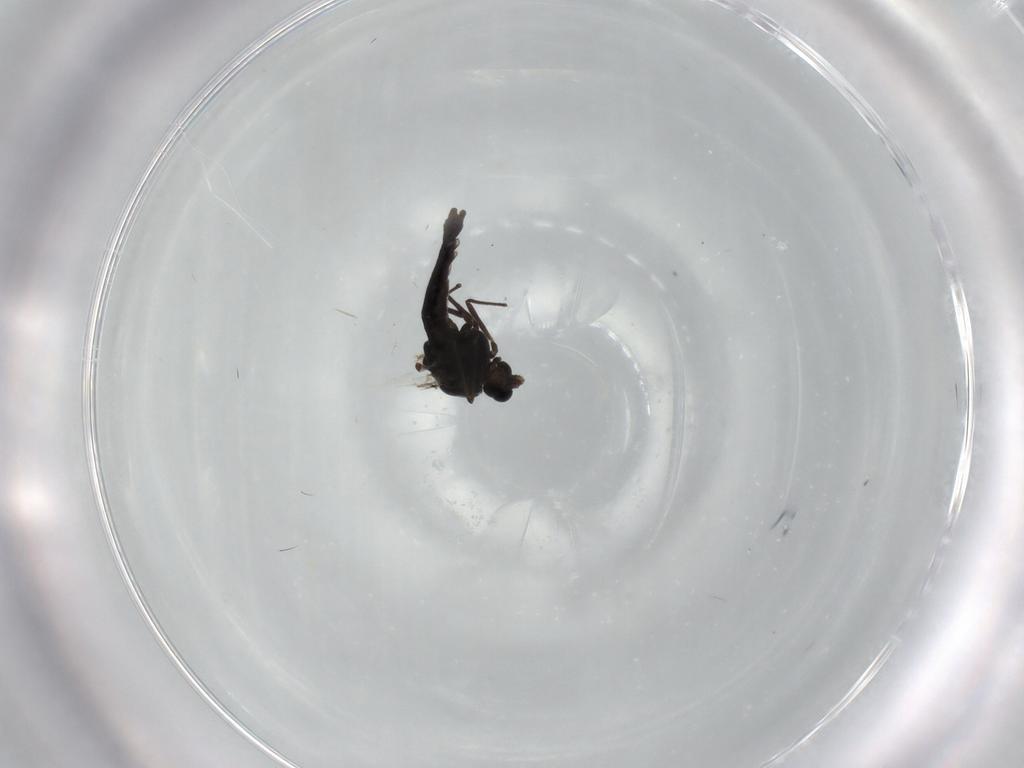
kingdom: Animalia
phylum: Arthropoda
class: Insecta
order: Diptera
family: Chironomidae
